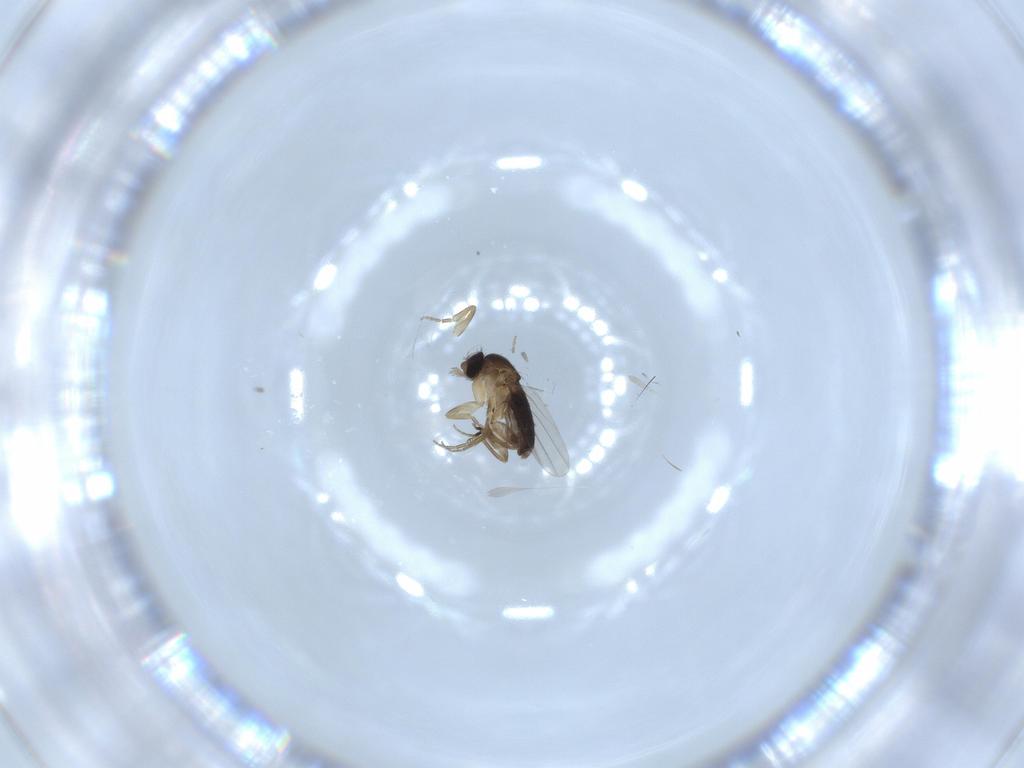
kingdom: Animalia
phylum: Arthropoda
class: Insecta
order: Diptera
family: Phoridae
